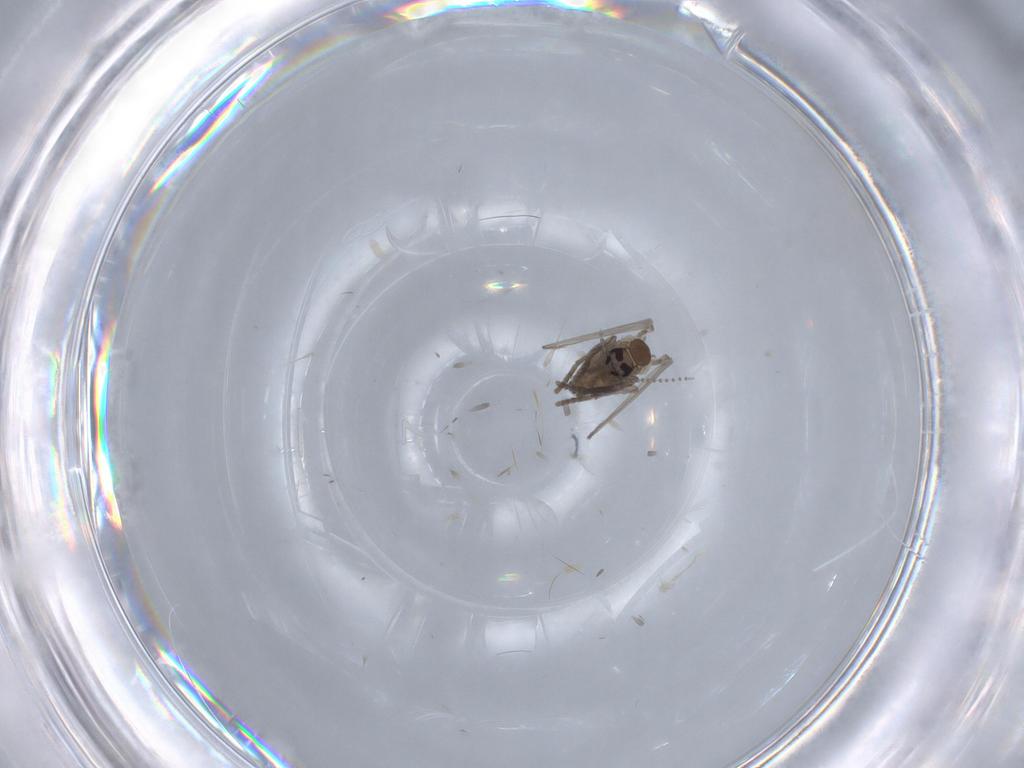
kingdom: Animalia
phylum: Arthropoda
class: Insecta
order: Diptera
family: Psychodidae
